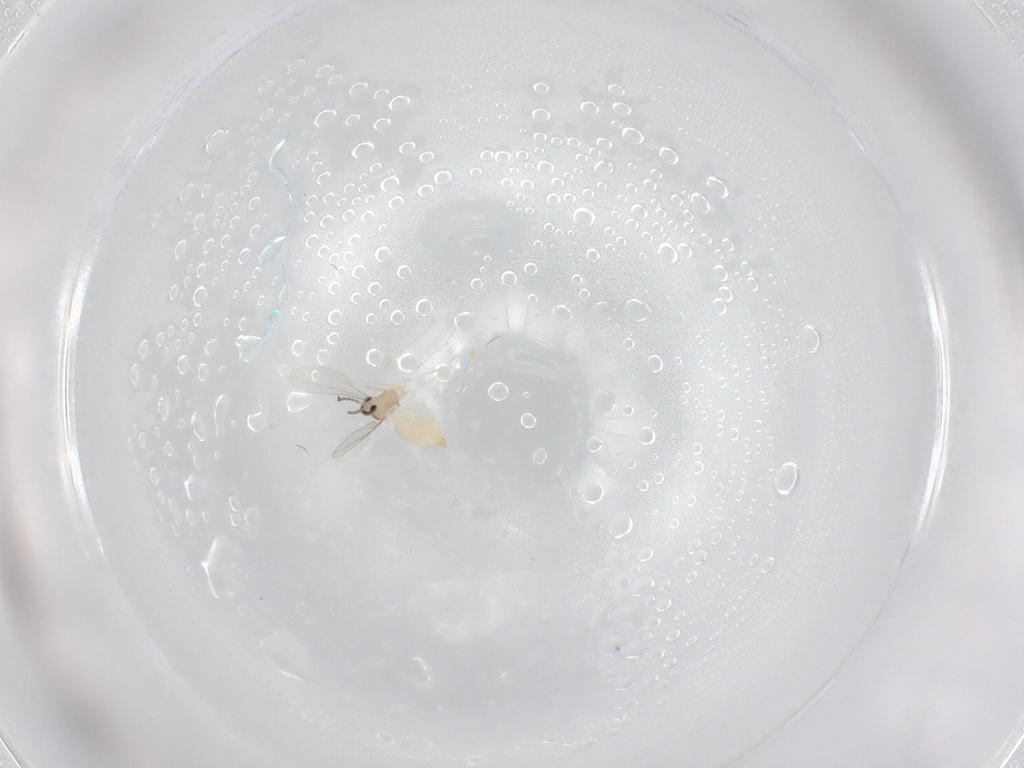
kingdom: Animalia
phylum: Arthropoda
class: Insecta
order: Diptera
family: Cecidomyiidae
